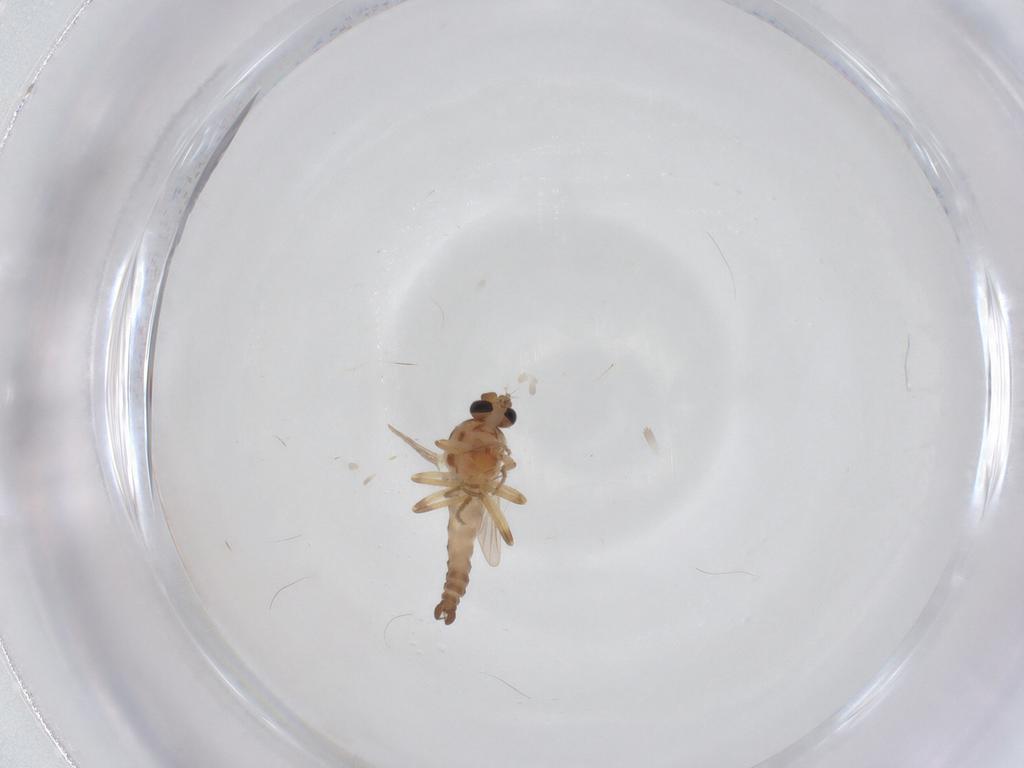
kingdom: Animalia
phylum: Arthropoda
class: Insecta
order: Diptera
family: Ceratopogonidae
